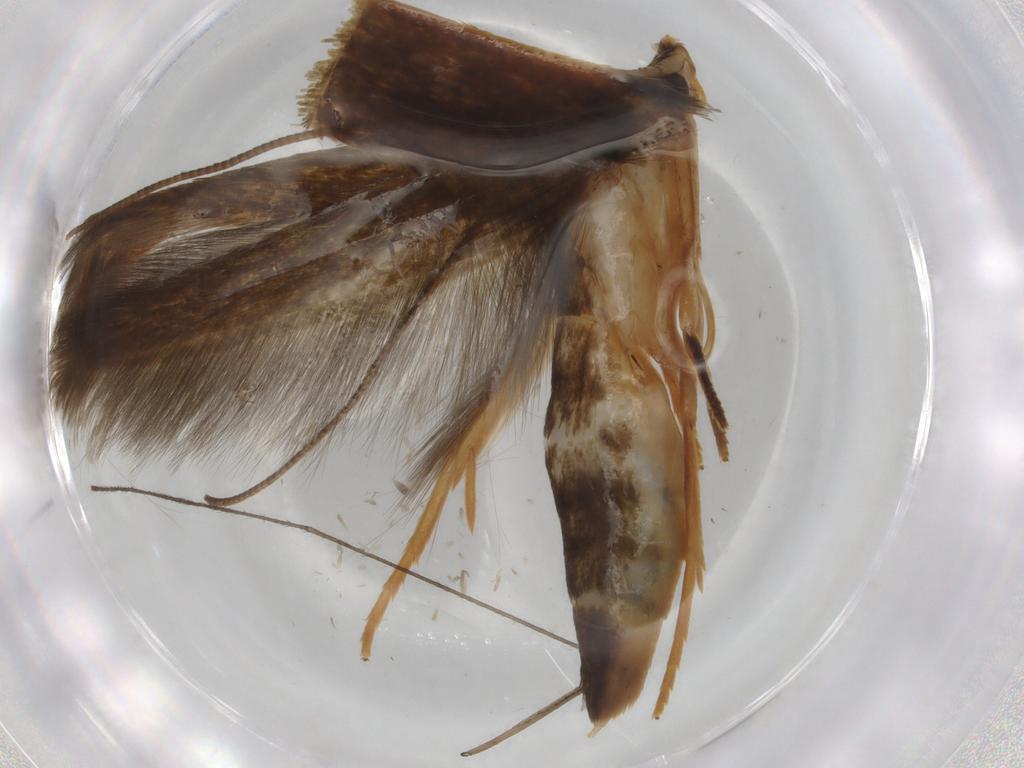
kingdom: Animalia
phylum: Arthropoda
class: Insecta
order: Lepidoptera
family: Tineidae
